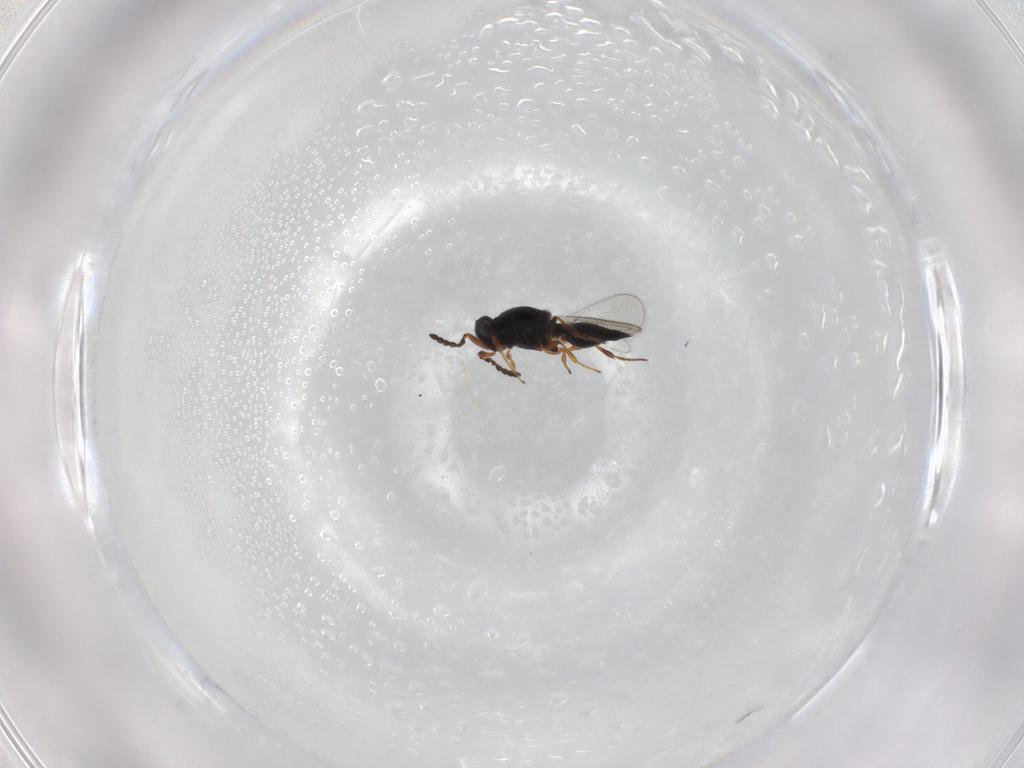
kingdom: Animalia
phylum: Arthropoda
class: Insecta
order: Hymenoptera
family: Platygastridae
